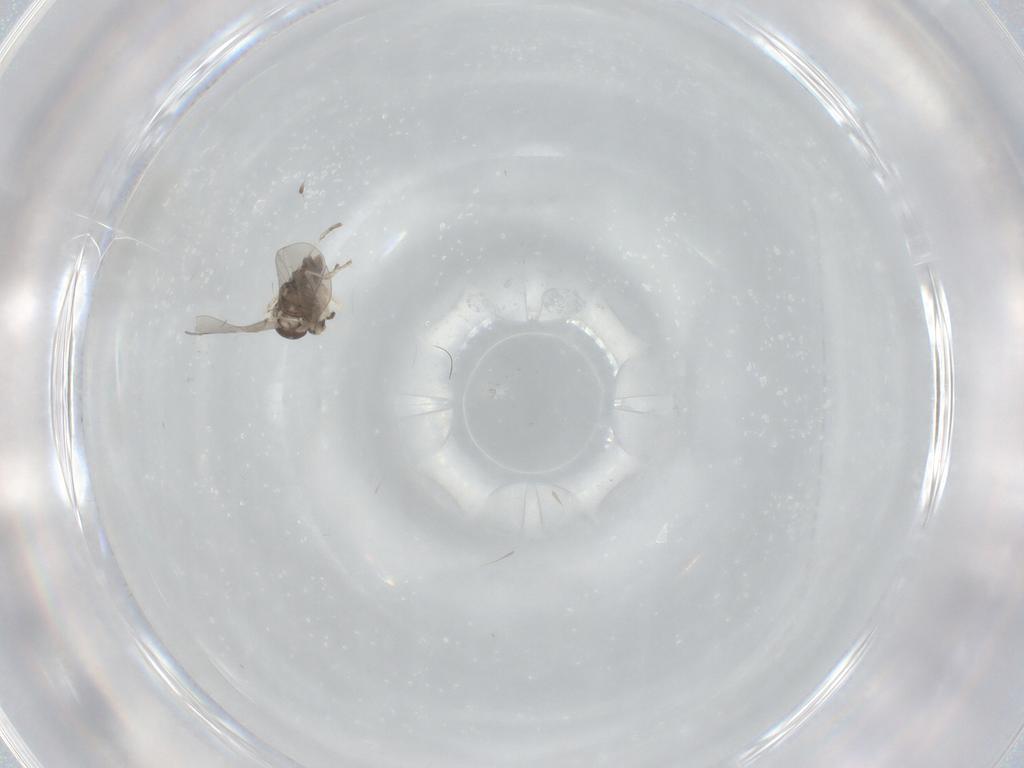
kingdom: Animalia
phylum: Arthropoda
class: Insecta
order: Diptera
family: Cecidomyiidae
